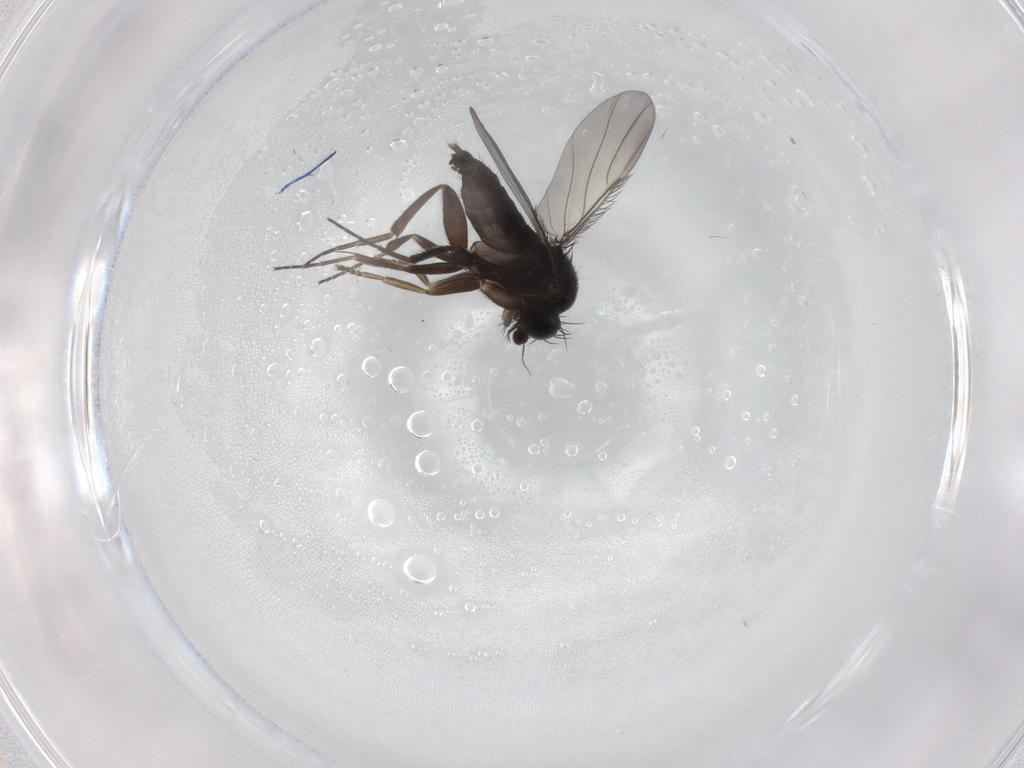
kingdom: Animalia
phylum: Arthropoda
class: Insecta
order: Diptera
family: Phoridae
